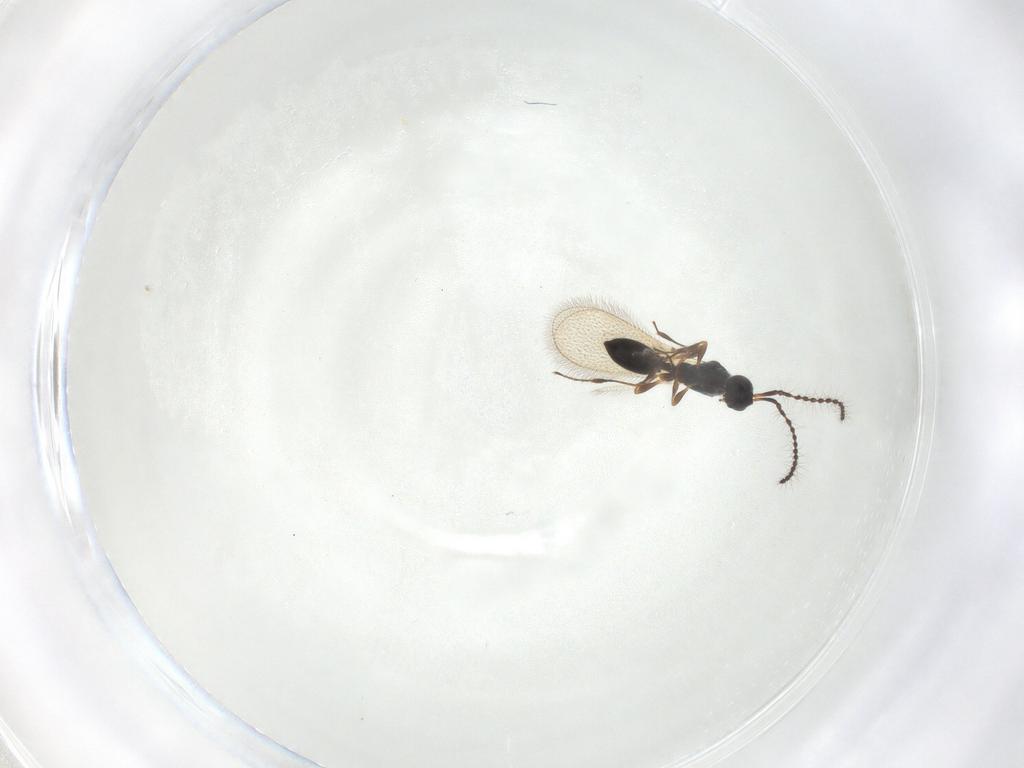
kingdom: Animalia
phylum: Arthropoda
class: Insecta
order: Hymenoptera
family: Diapriidae
